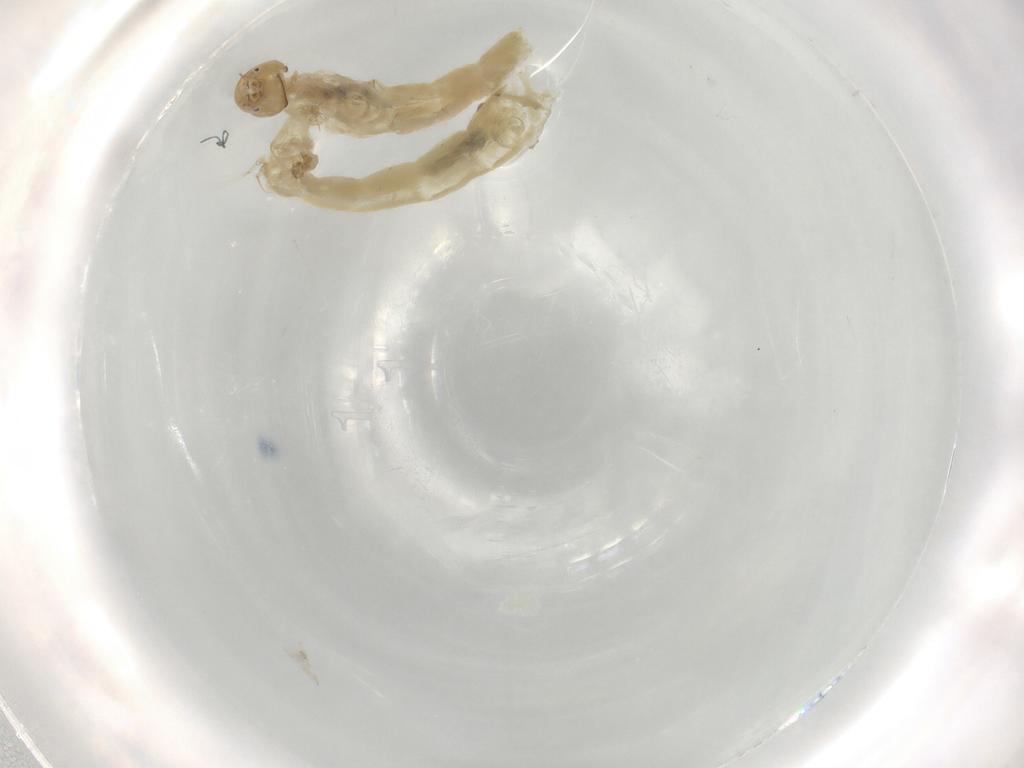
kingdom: Animalia
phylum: Arthropoda
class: Insecta
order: Diptera
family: Chironomidae
